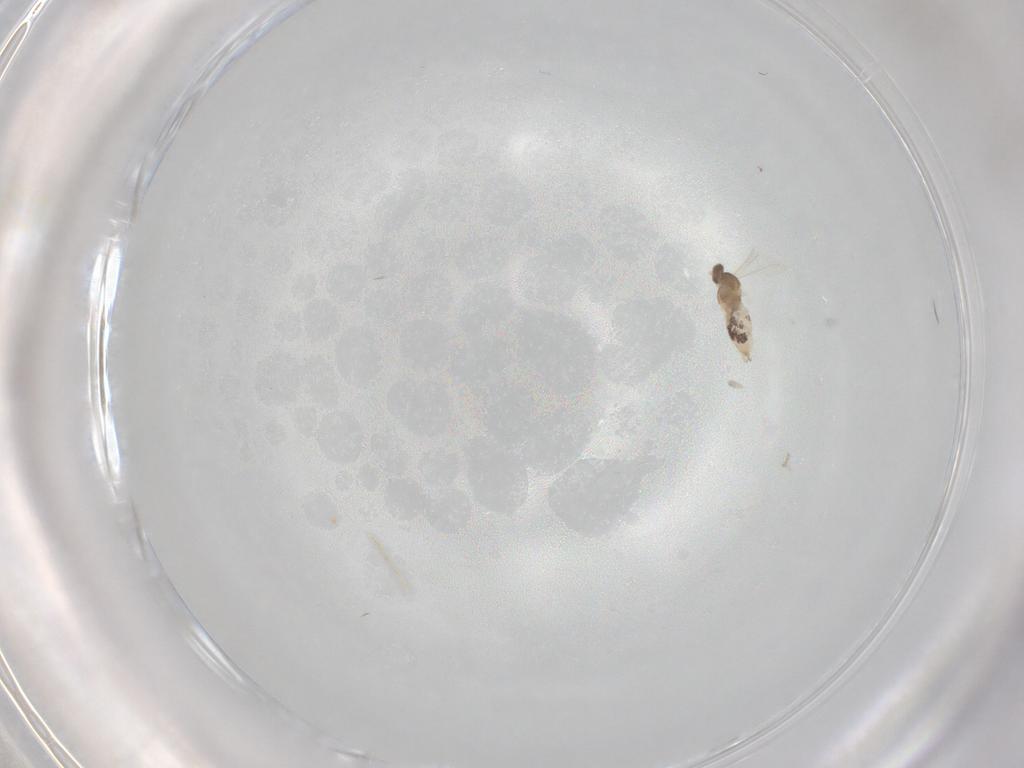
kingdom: Animalia
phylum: Arthropoda
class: Insecta
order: Diptera
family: Cecidomyiidae
